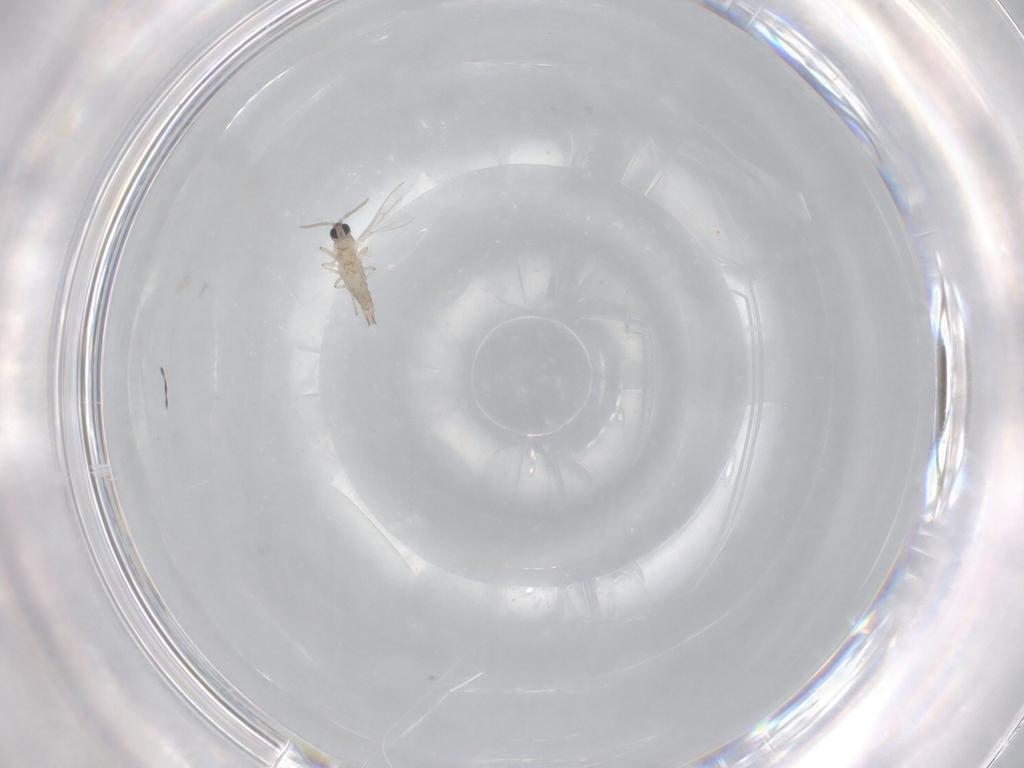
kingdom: Animalia
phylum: Arthropoda
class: Insecta
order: Diptera
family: Cecidomyiidae
